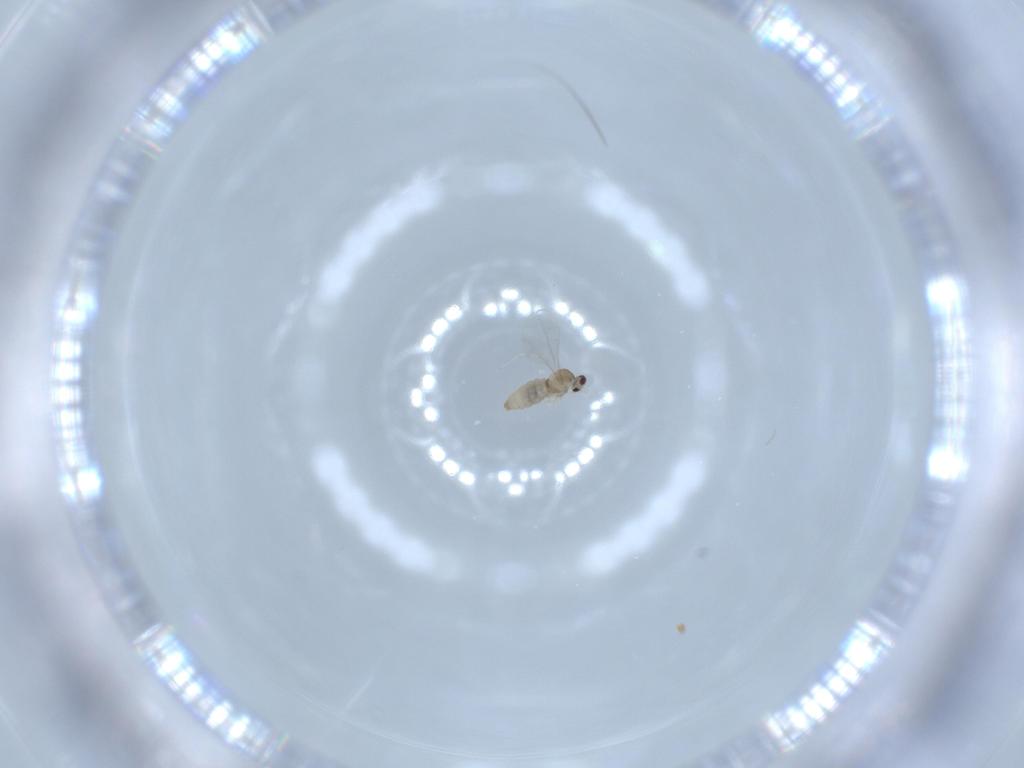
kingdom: Animalia
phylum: Arthropoda
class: Insecta
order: Diptera
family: Cecidomyiidae
